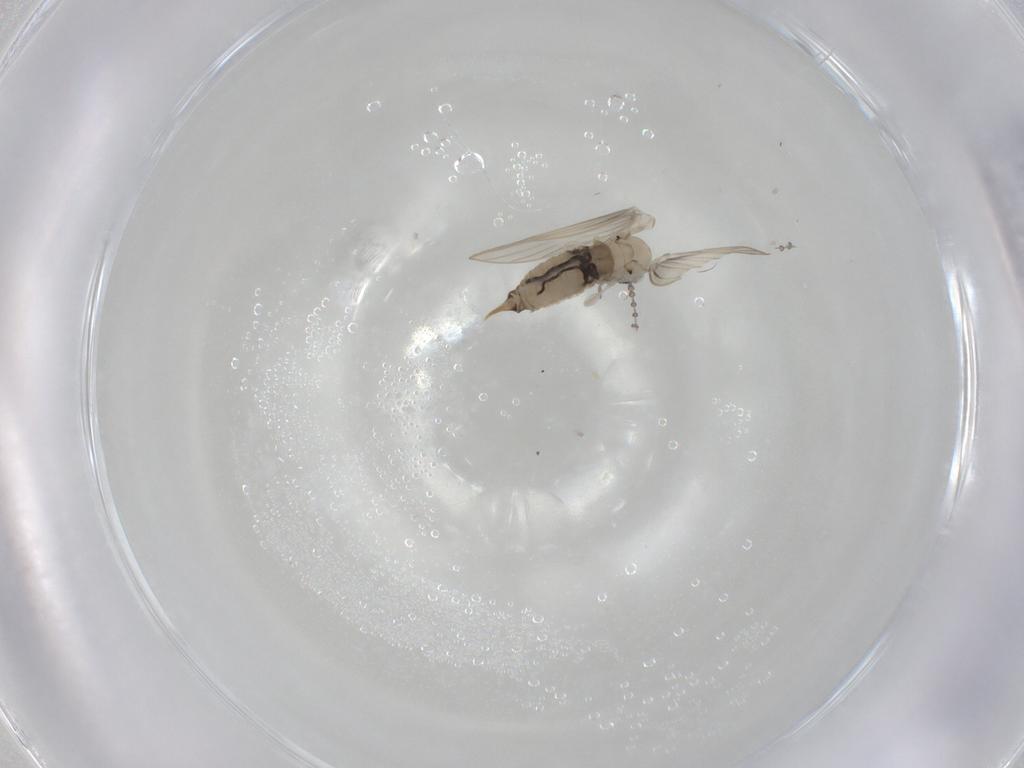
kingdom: Animalia
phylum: Arthropoda
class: Insecta
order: Diptera
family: Psychodidae
